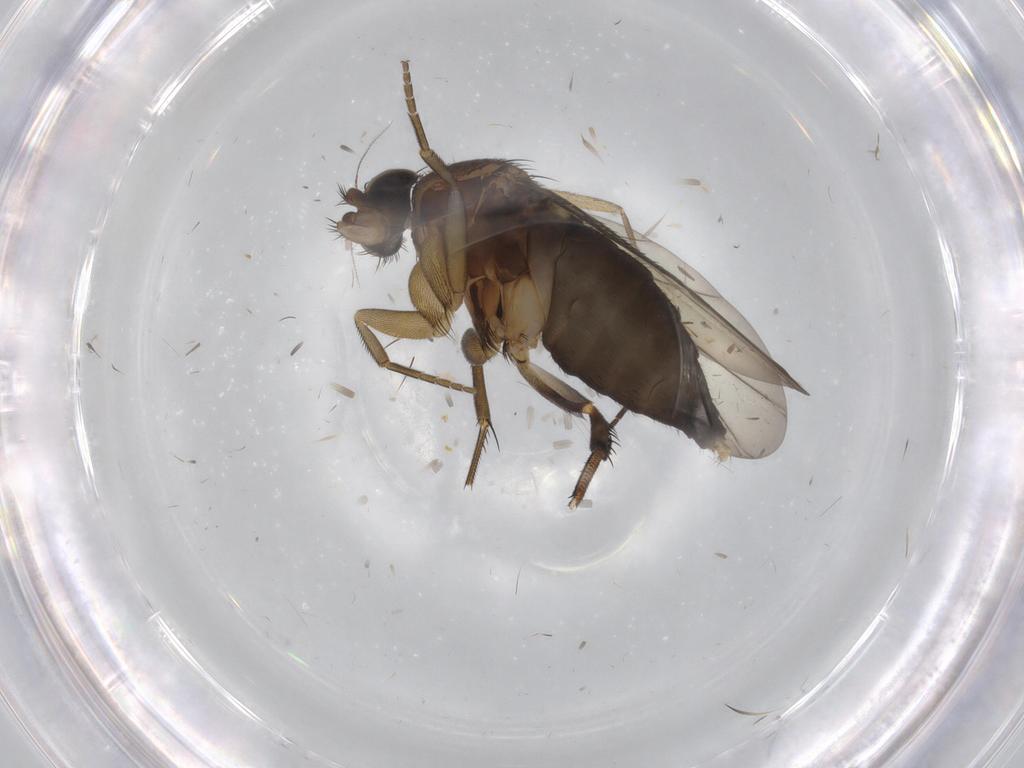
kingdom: Animalia
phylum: Arthropoda
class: Insecta
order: Diptera
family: Phoridae
